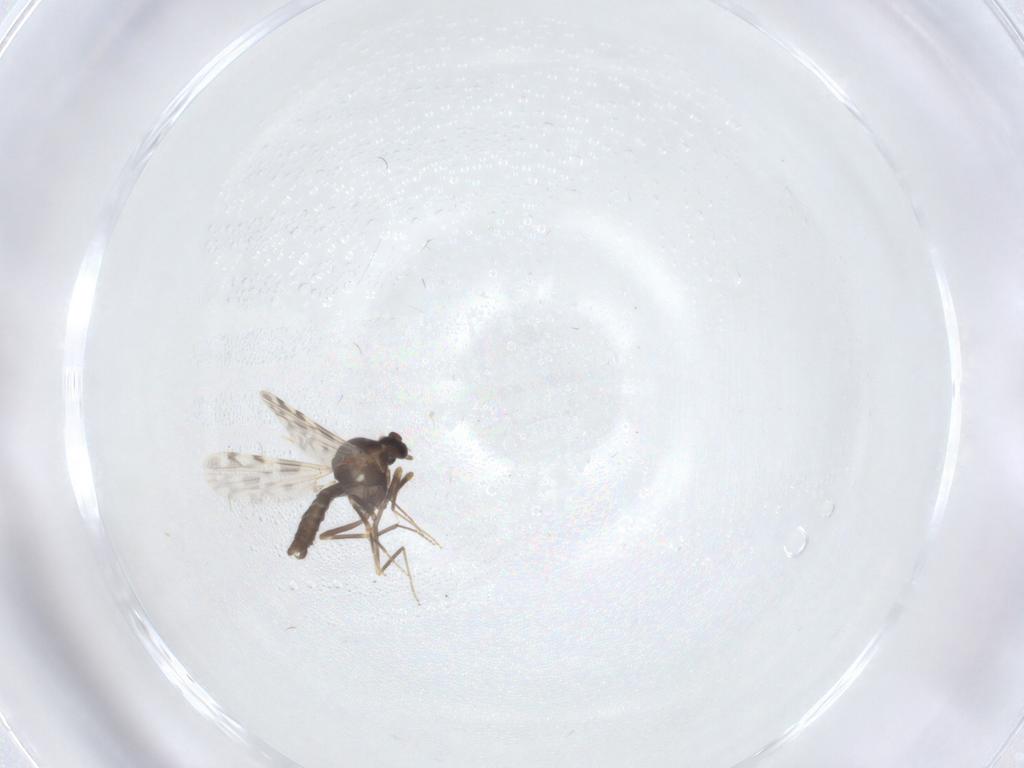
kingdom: Animalia
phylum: Arthropoda
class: Insecta
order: Diptera
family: Ceratopogonidae
